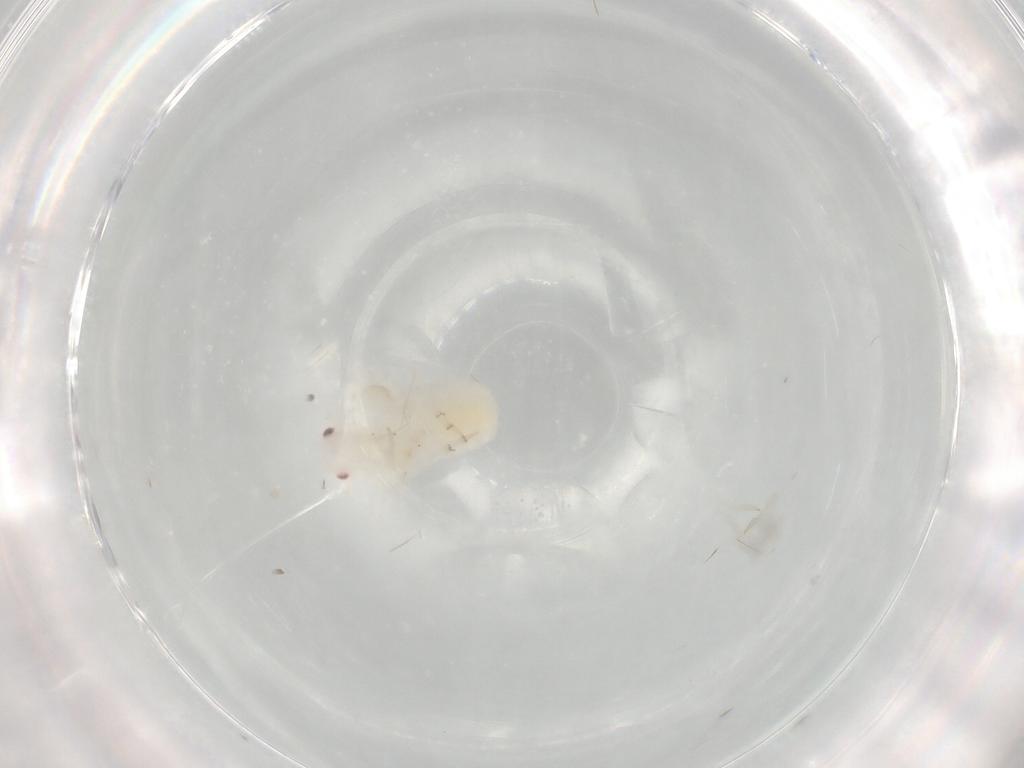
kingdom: Animalia
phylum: Arthropoda
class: Insecta
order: Hemiptera
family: Flatidae
